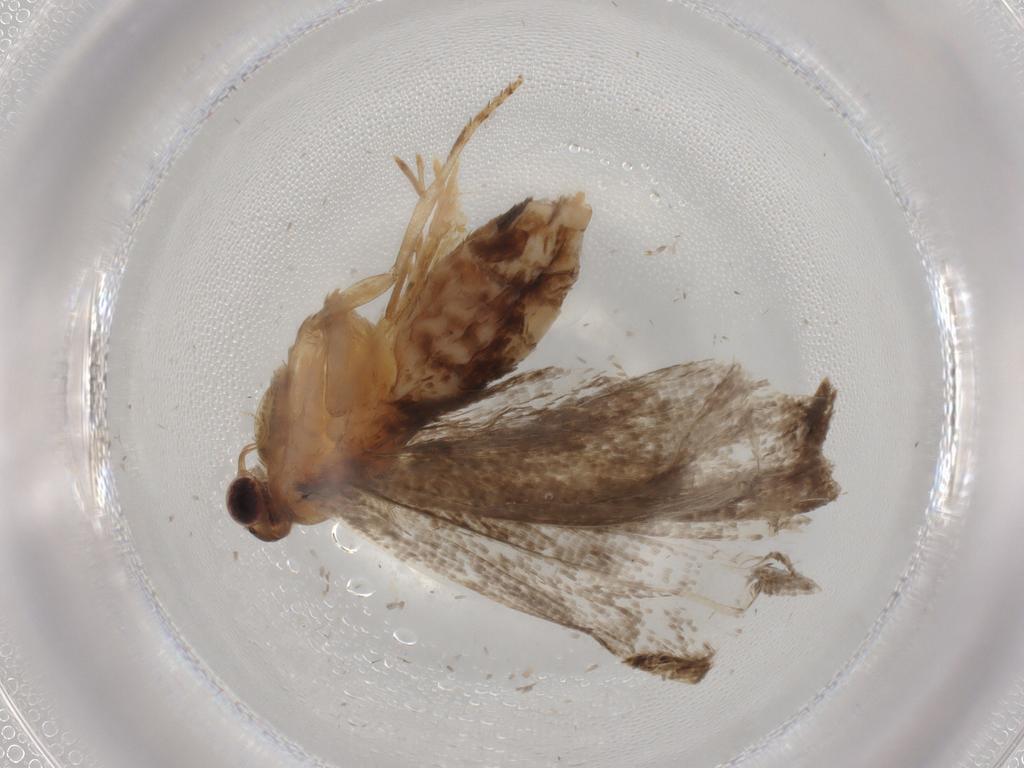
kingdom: Animalia
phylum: Arthropoda
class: Insecta
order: Lepidoptera
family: Tortricidae
